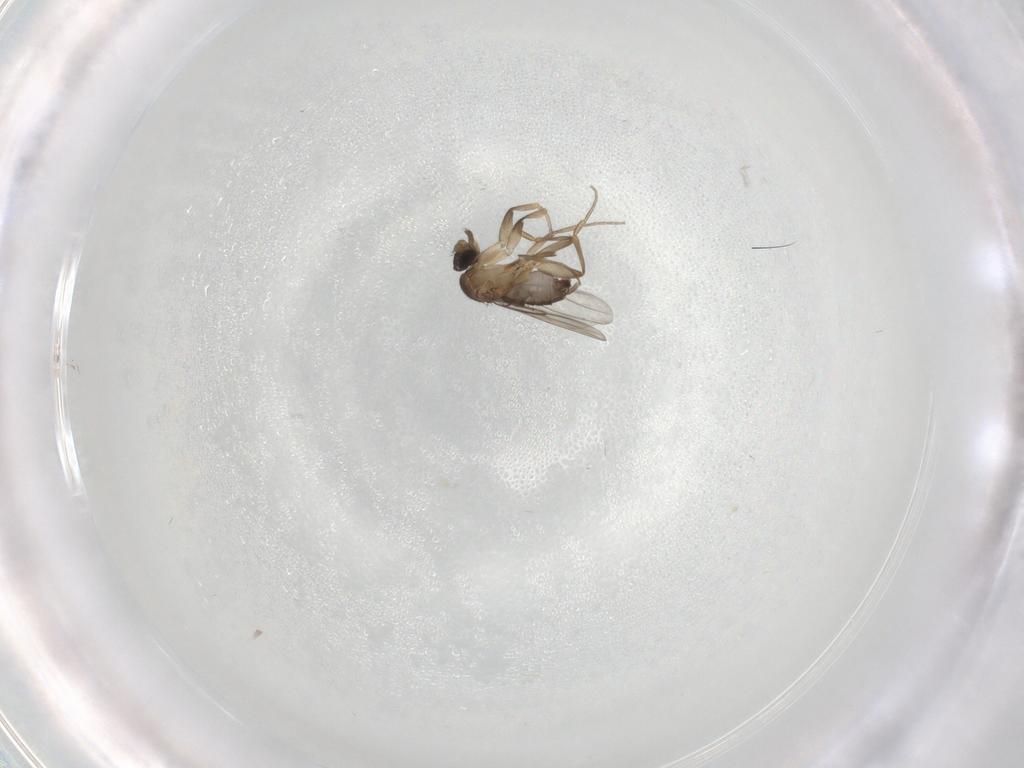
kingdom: Animalia
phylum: Arthropoda
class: Insecta
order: Diptera
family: Phoridae
